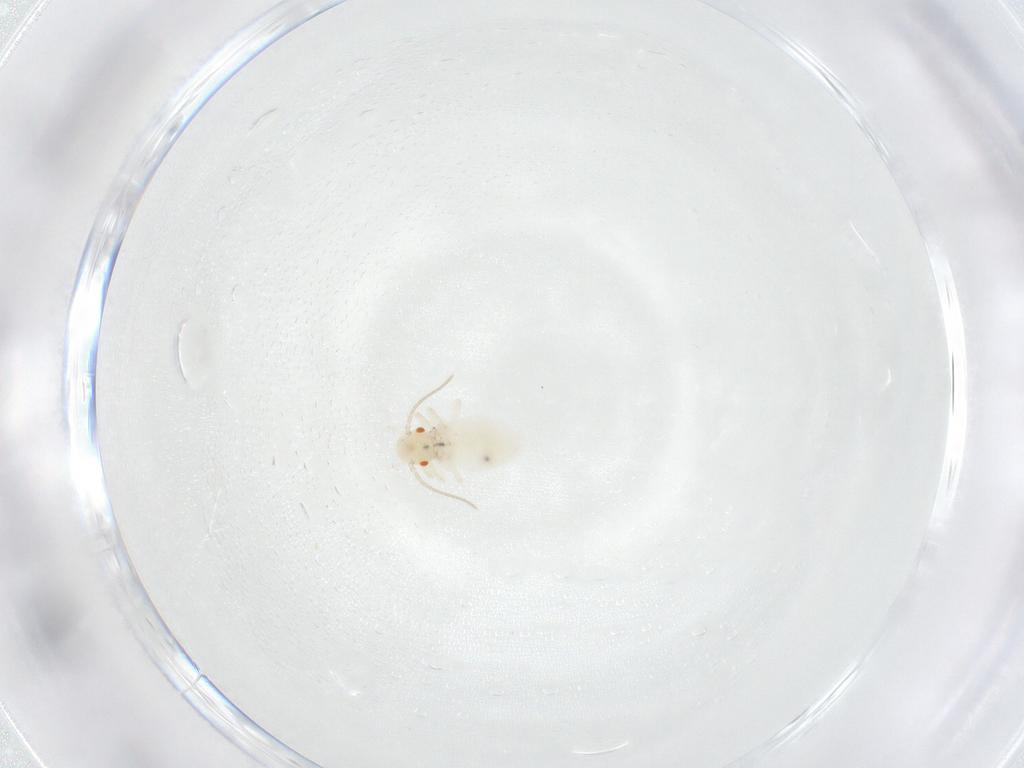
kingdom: Animalia
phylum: Arthropoda
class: Insecta
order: Psocodea
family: Caeciliusidae
